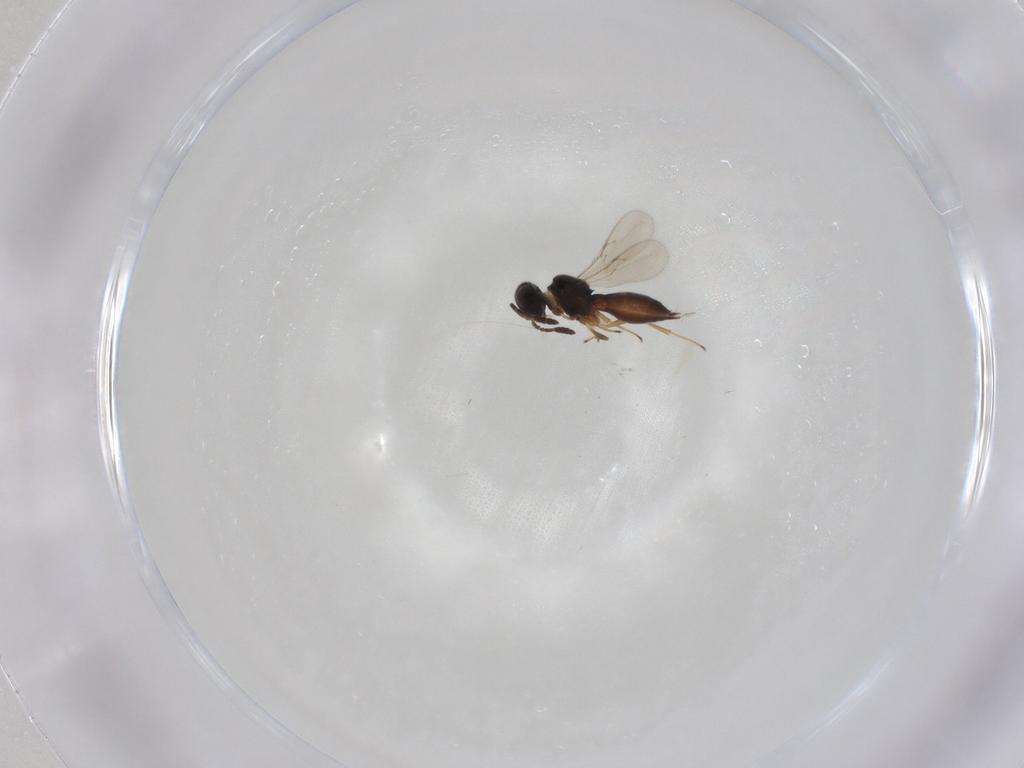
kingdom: Animalia
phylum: Arthropoda
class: Insecta
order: Hymenoptera
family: Scelionidae
